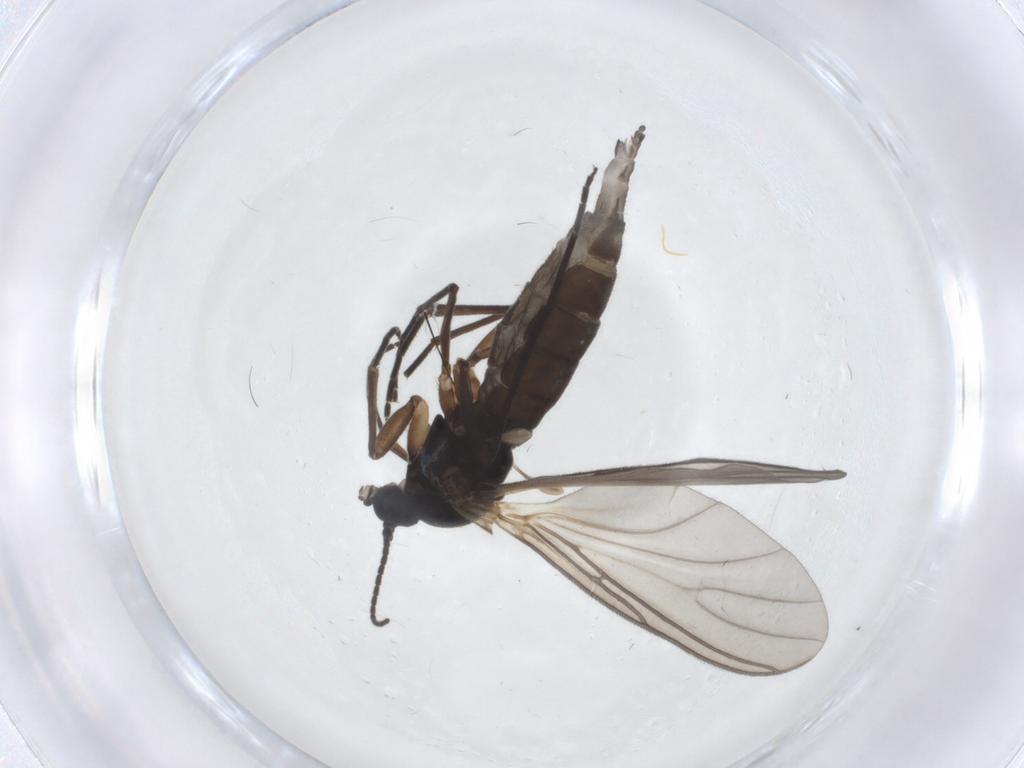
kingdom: Animalia
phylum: Arthropoda
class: Insecta
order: Diptera
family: Sciaridae
